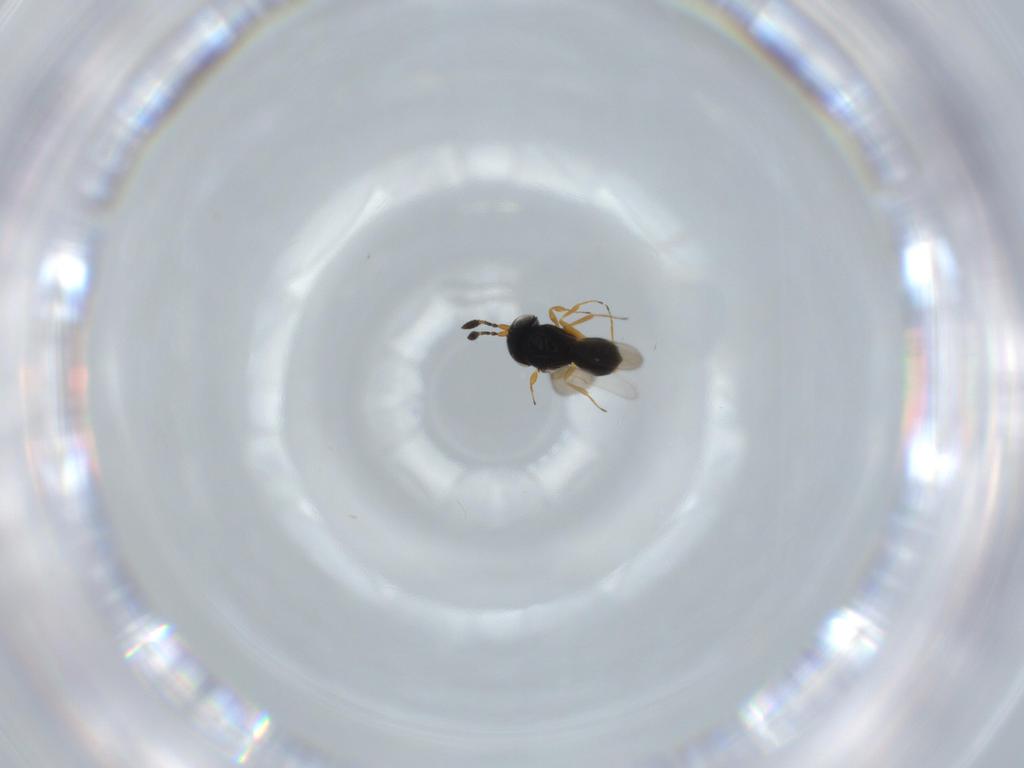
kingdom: Animalia
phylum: Arthropoda
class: Insecta
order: Hymenoptera
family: Scelionidae
